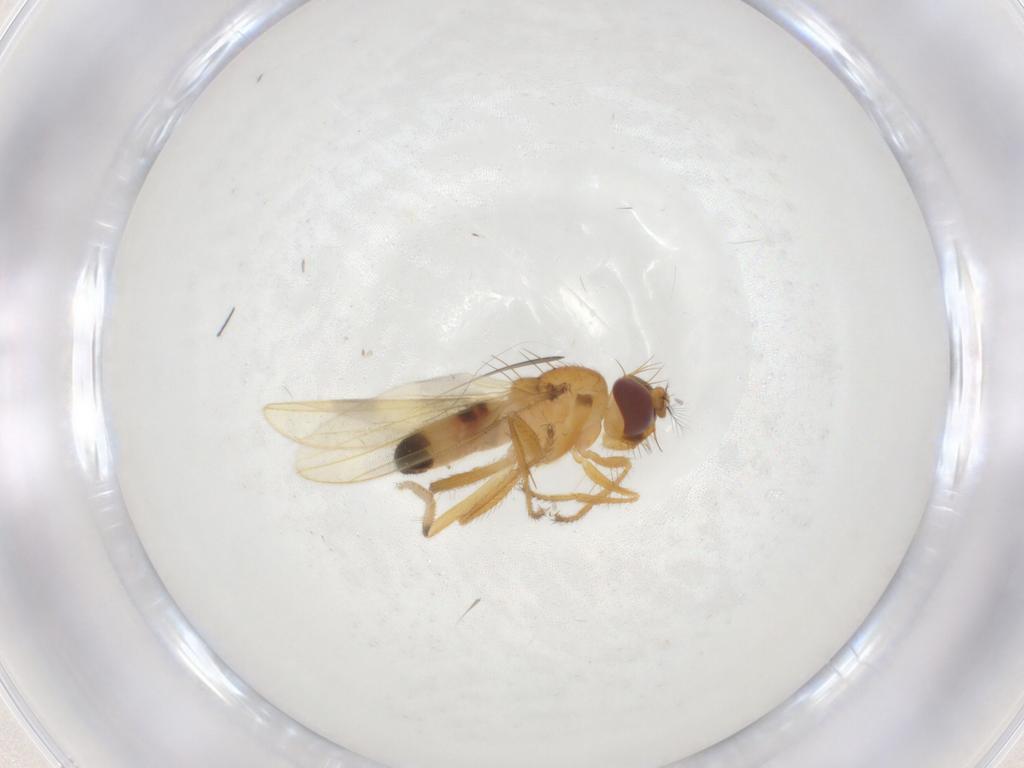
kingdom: Animalia
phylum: Arthropoda
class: Insecta
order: Diptera
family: Periscelididae
